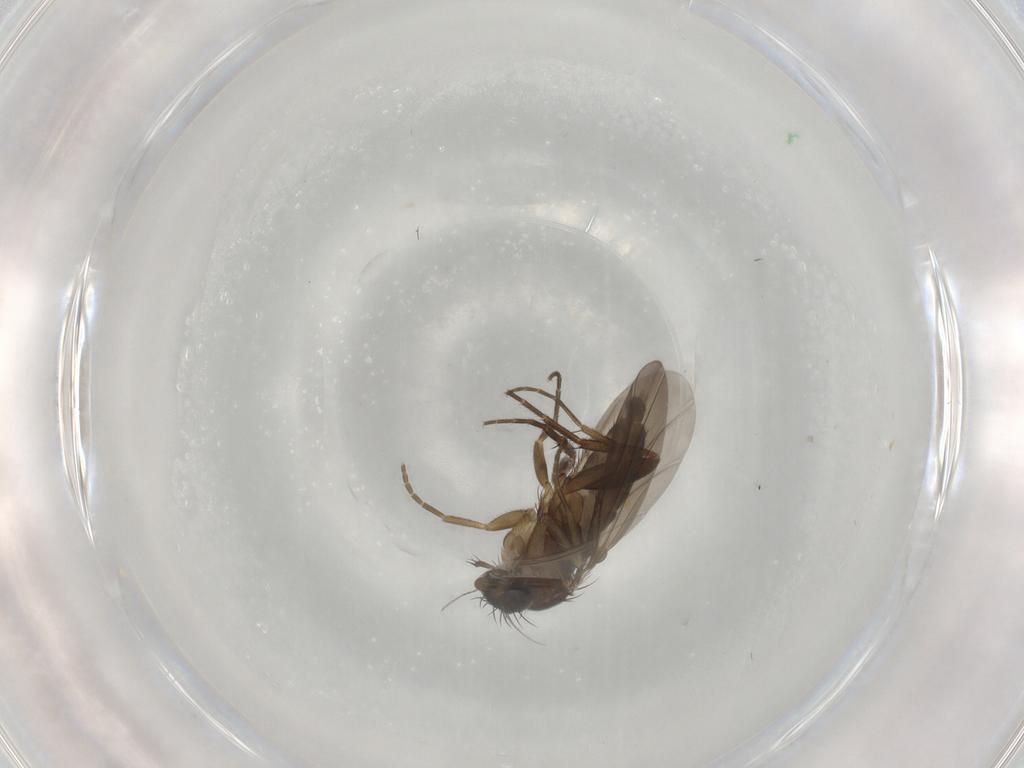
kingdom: Animalia
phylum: Arthropoda
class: Insecta
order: Diptera
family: Phoridae
